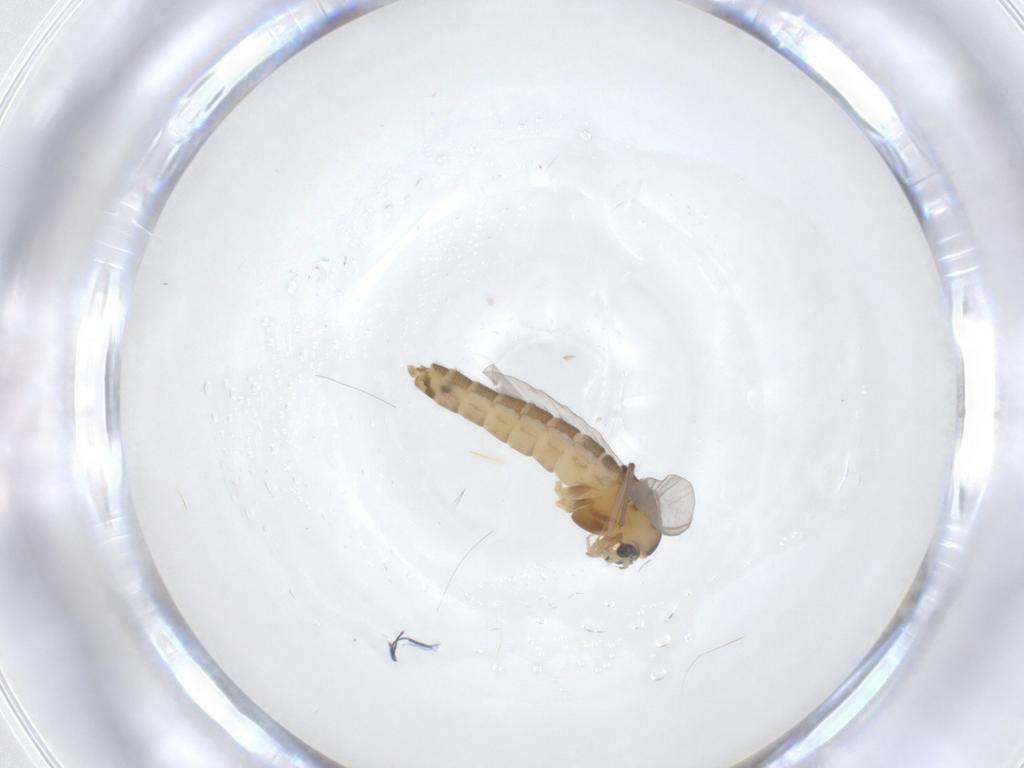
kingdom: Animalia
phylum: Arthropoda
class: Insecta
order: Diptera
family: Chironomidae
